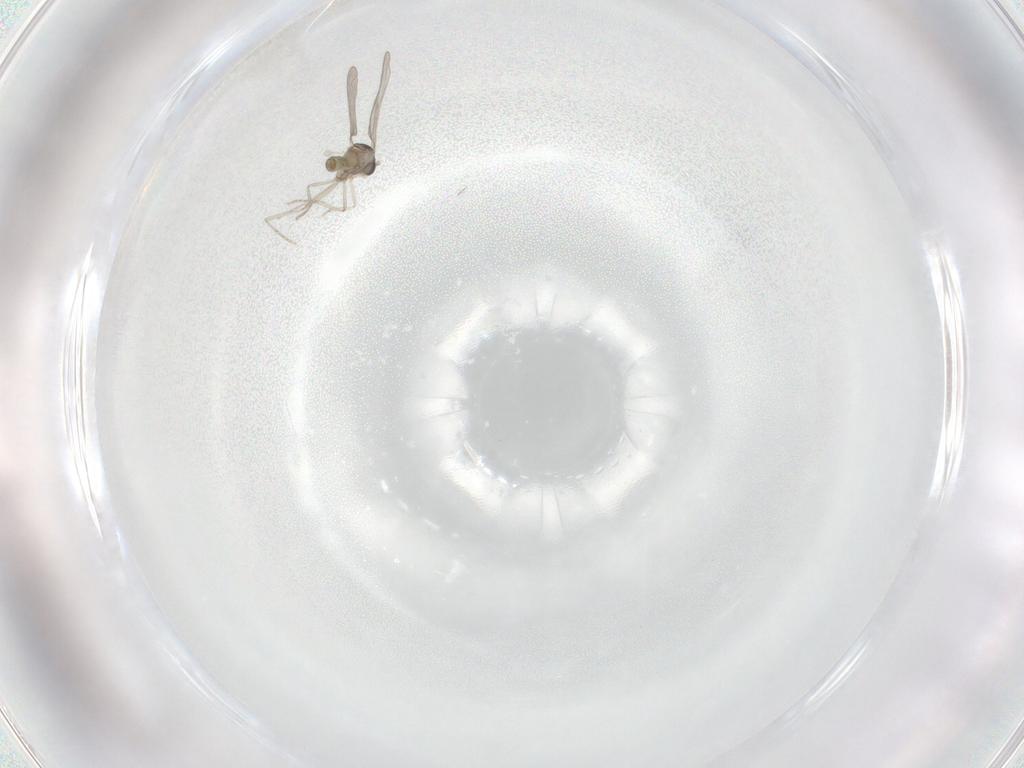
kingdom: Animalia
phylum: Arthropoda
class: Insecta
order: Diptera
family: Cecidomyiidae
